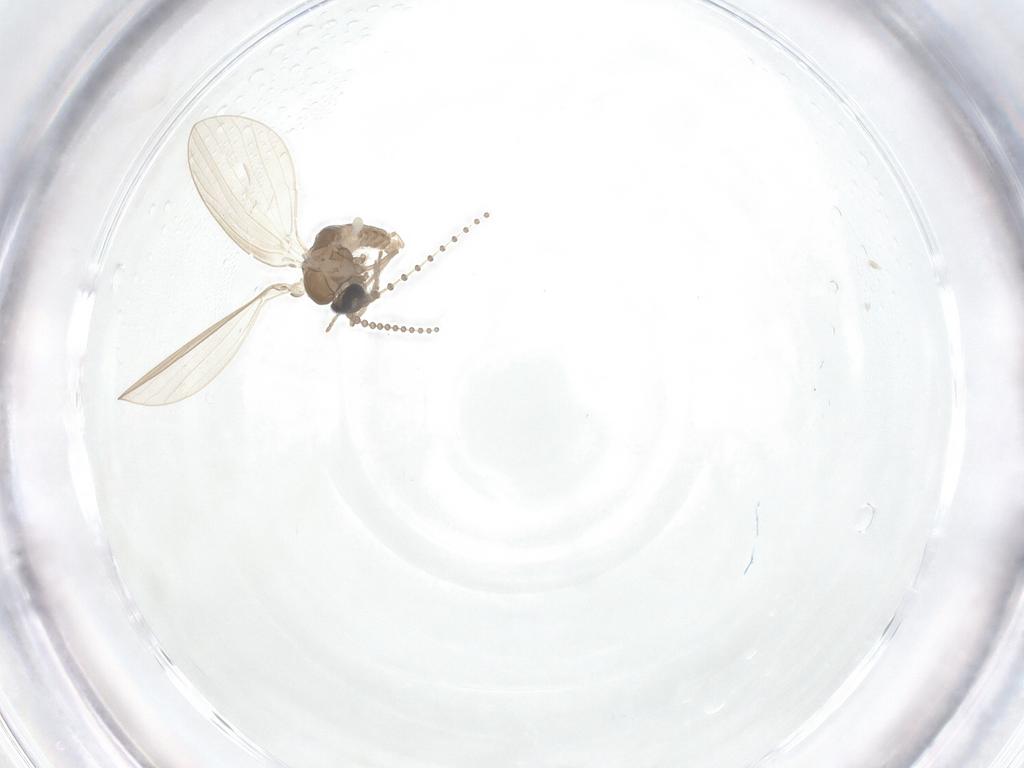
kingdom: Animalia
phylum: Arthropoda
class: Insecta
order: Diptera
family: Psychodidae
